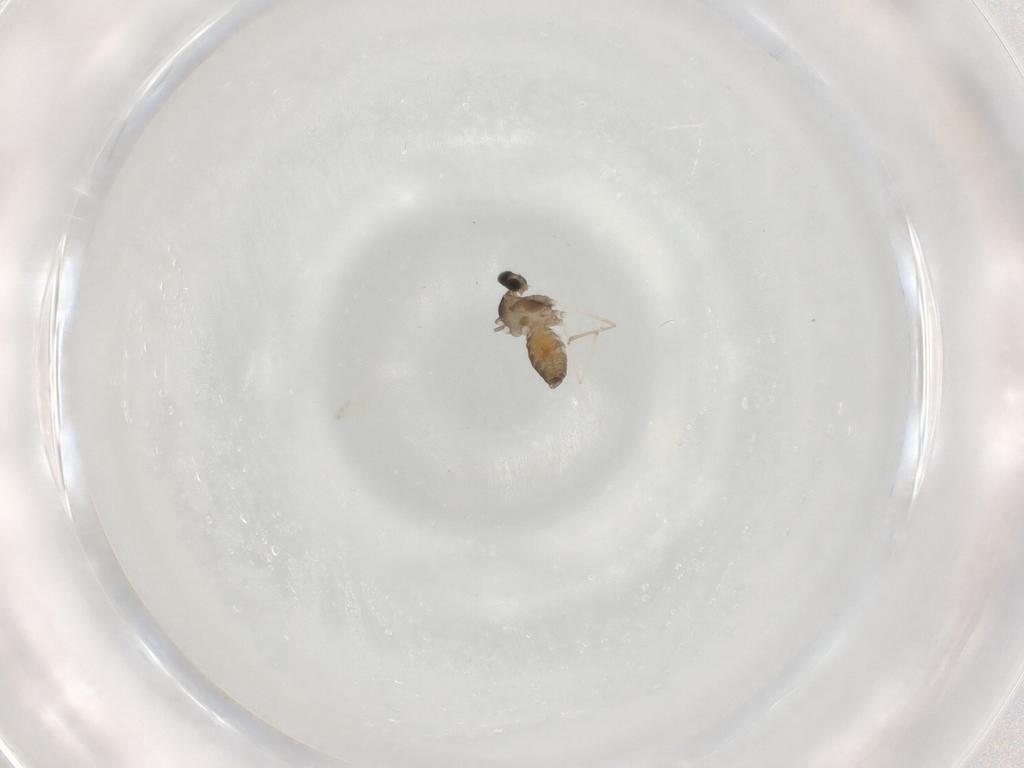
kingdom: Animalia
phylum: Arthropoda
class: Insecta
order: Diptera
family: Cecidomyiidae
